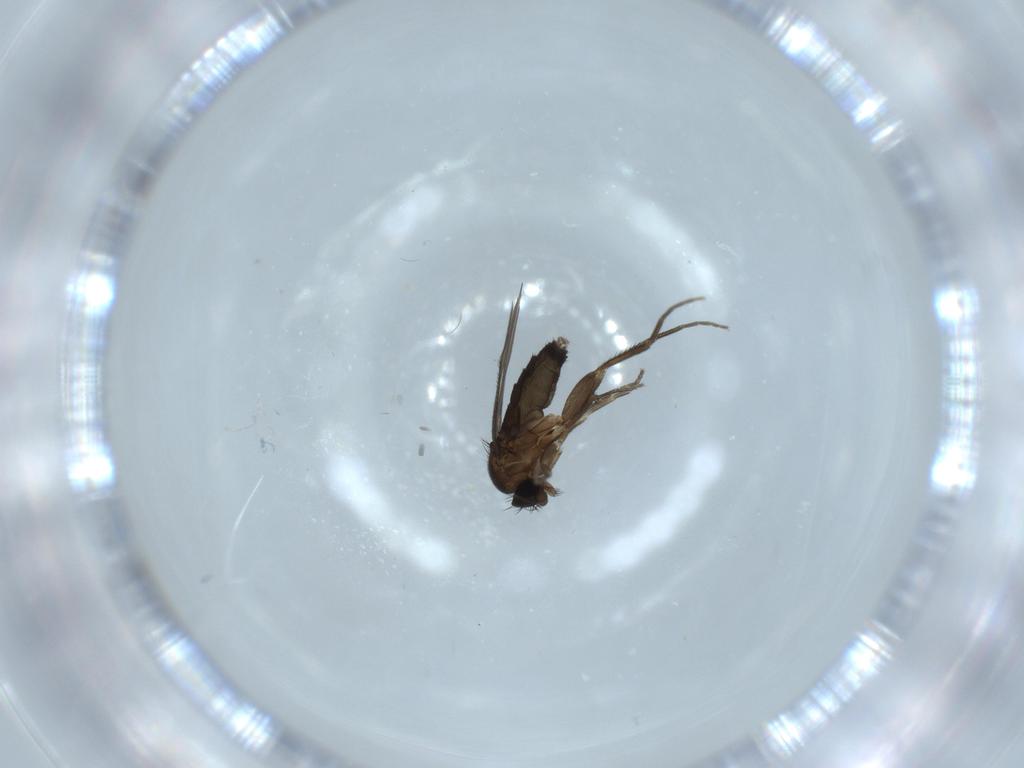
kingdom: Animalia
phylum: Arthropoda
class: Insecta
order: Diptera
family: Phoridae
